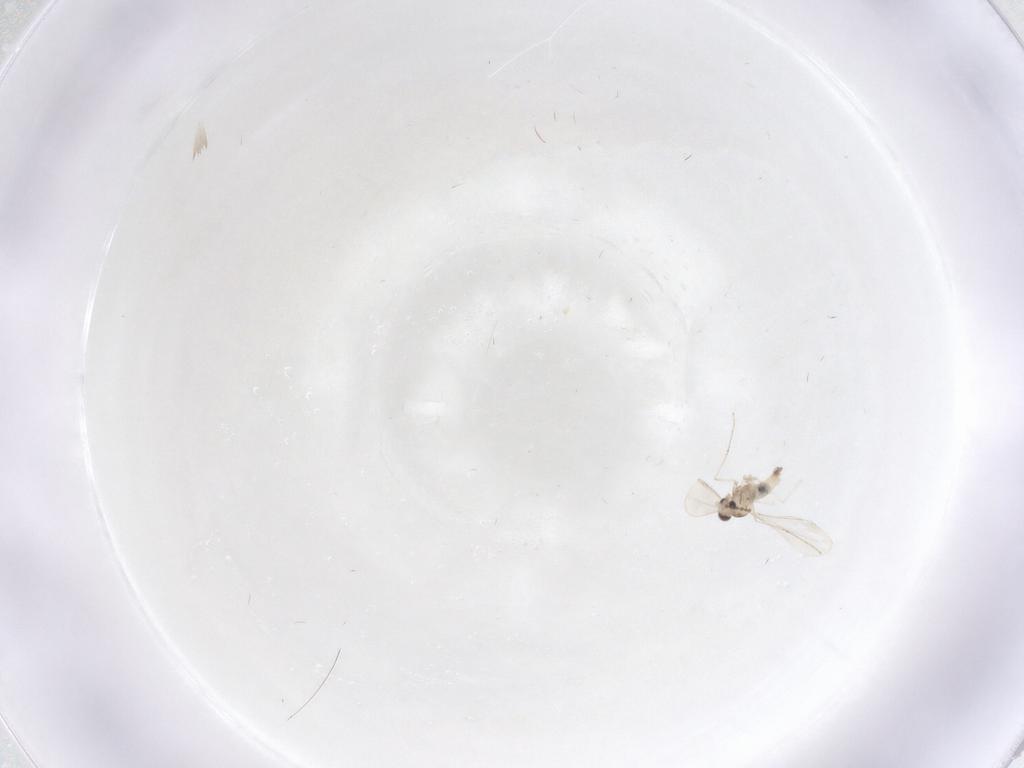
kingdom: Animalia
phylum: Arthropoda
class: Insecta
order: Diptera
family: Cecidomyiidae
